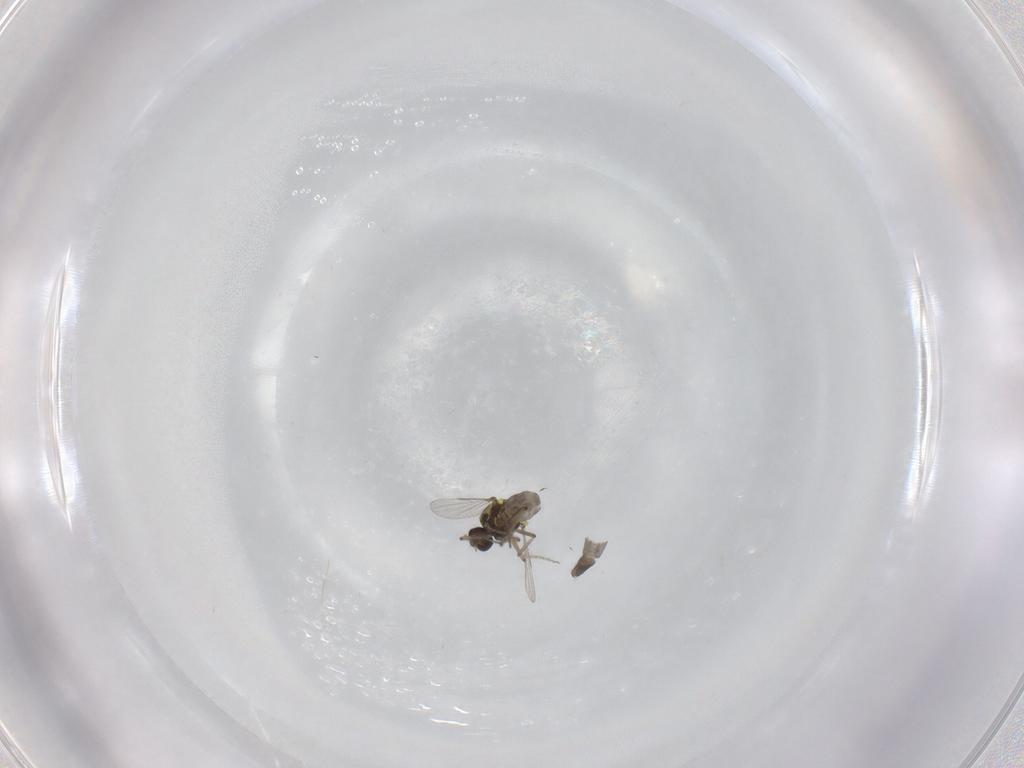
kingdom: Animalia
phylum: Arthropoda
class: Insecta
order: Diptera
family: Ceratopogonidae
